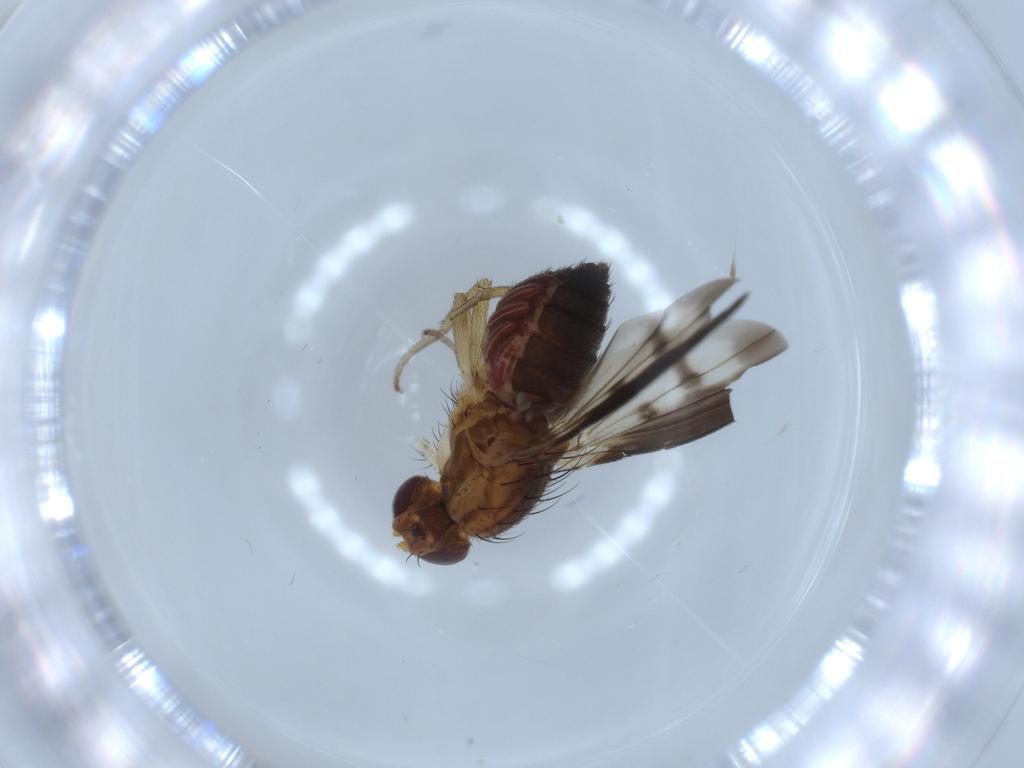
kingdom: Animalia
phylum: Arthropoda
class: Insecta
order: Diptera
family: Heleomyzidae
